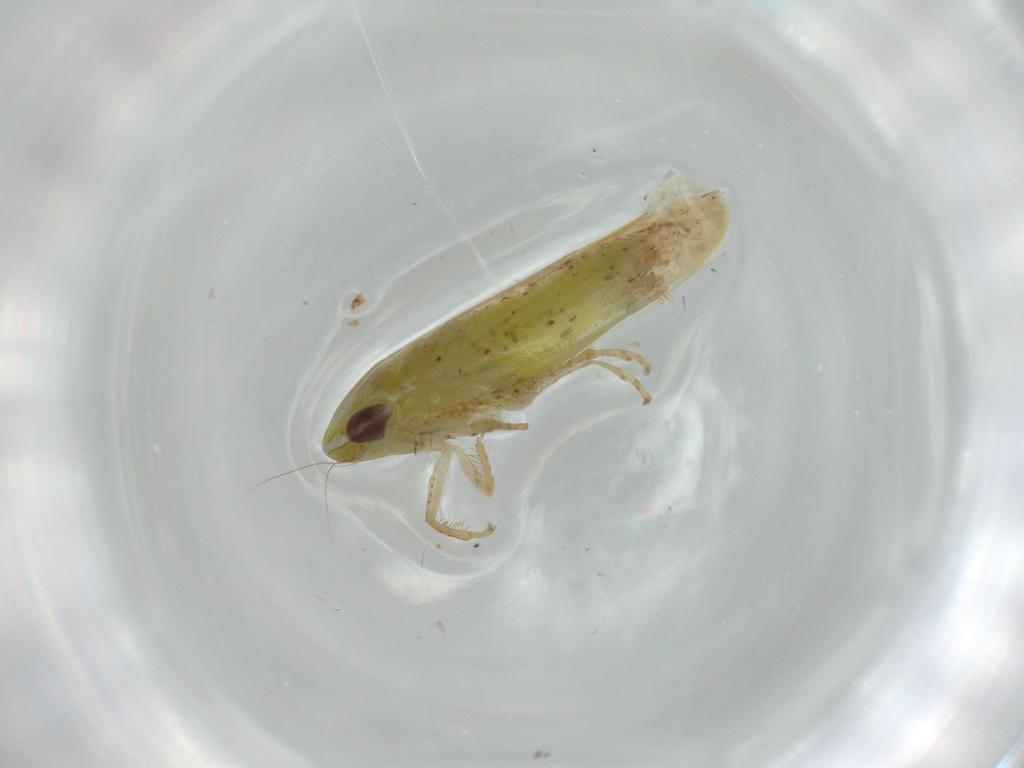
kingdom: Animalia
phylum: Arthropoda
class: Insecta
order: Hemiptera
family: Cicadellidae
